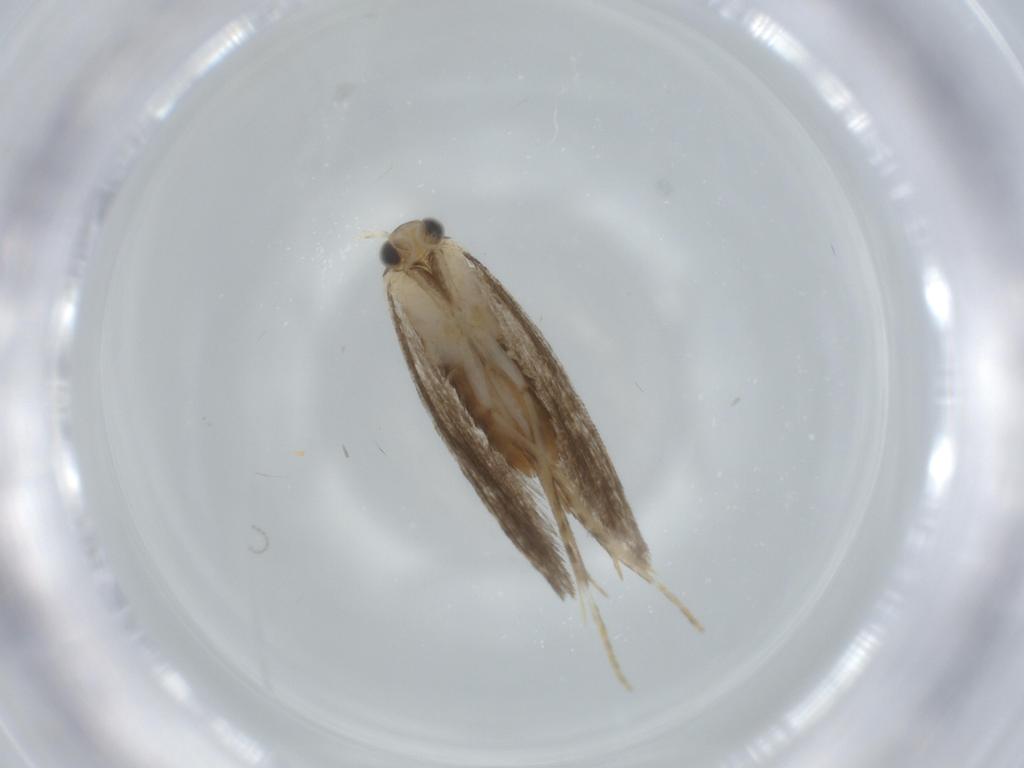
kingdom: Animalia
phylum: Arthropoda
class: Insecta
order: Lepidoptera
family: Tineidae
